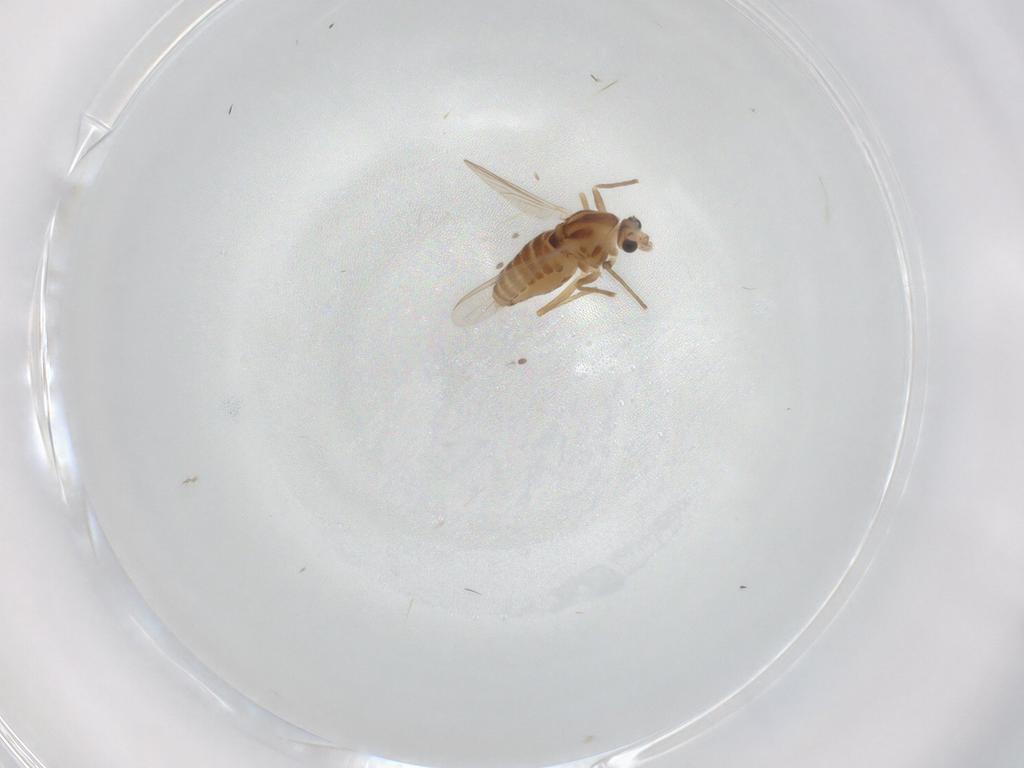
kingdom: Animalia
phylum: Arthropoda
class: Insecta
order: Diptera
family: Chironomidae
